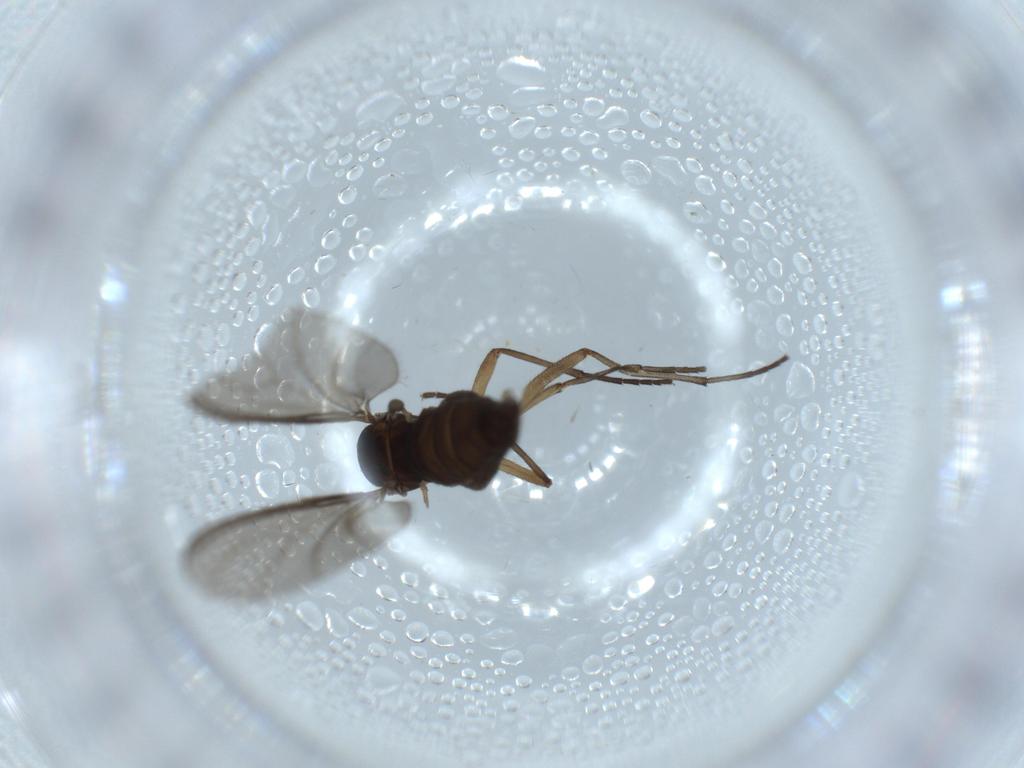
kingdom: Animalia
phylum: Arthropoda
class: Insecta
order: Diptera
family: Sciaridae
